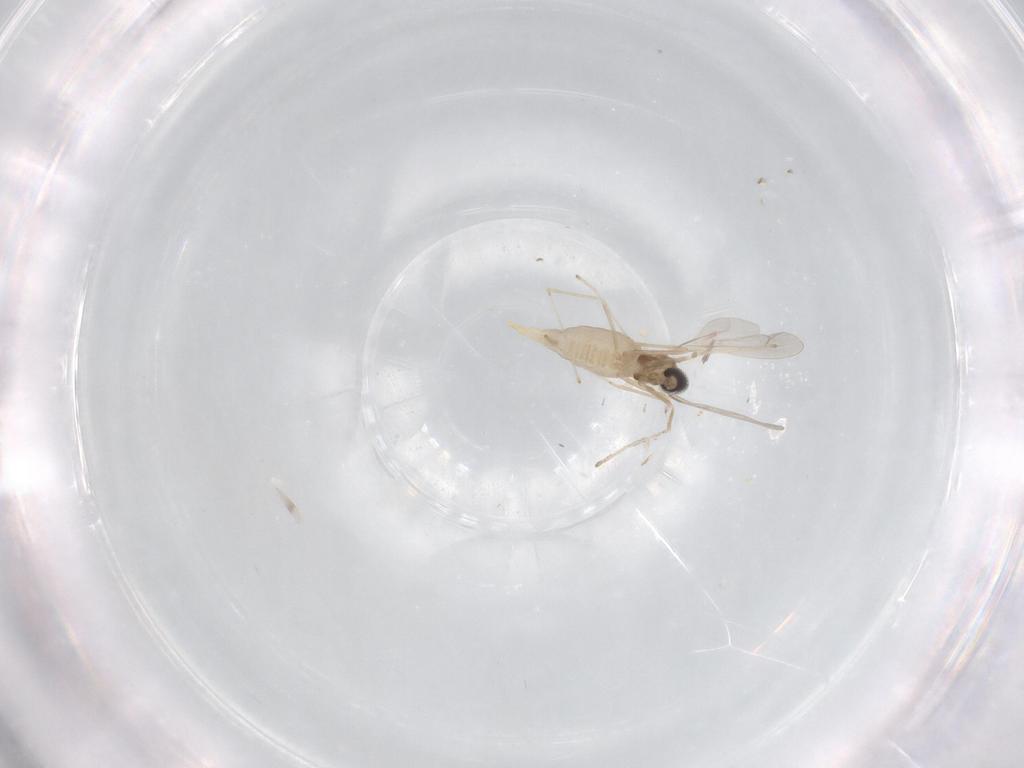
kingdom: Animalia
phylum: Arthropoda
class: Insecta
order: Diptera
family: Cecidomyiidae
